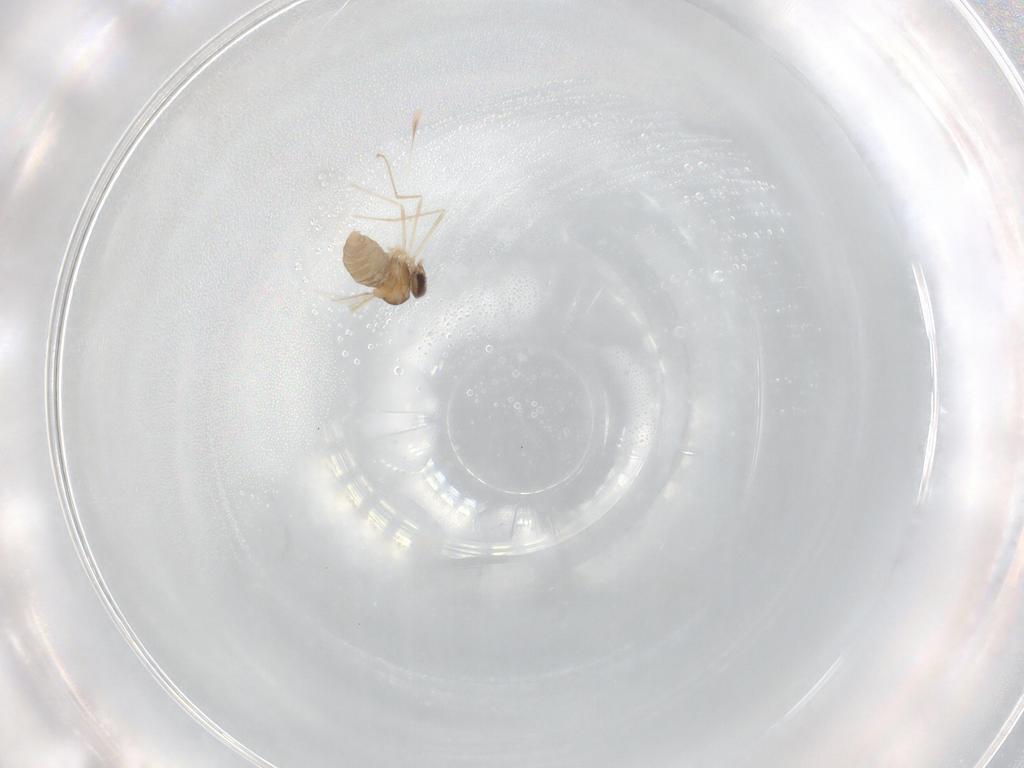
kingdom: Animalia
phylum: Arthropoda
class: Insecta
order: Diptera
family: Cecidomyiidae
